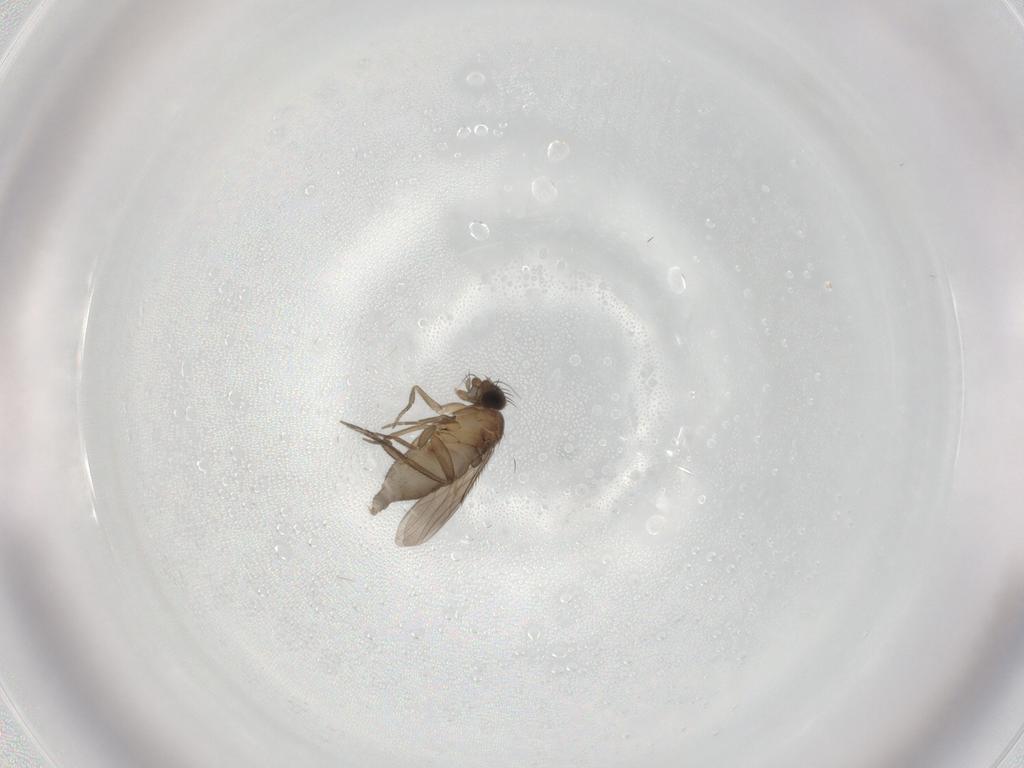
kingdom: Animalia
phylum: Arthropoda
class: Insecta
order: Diptera
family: Phoridae
